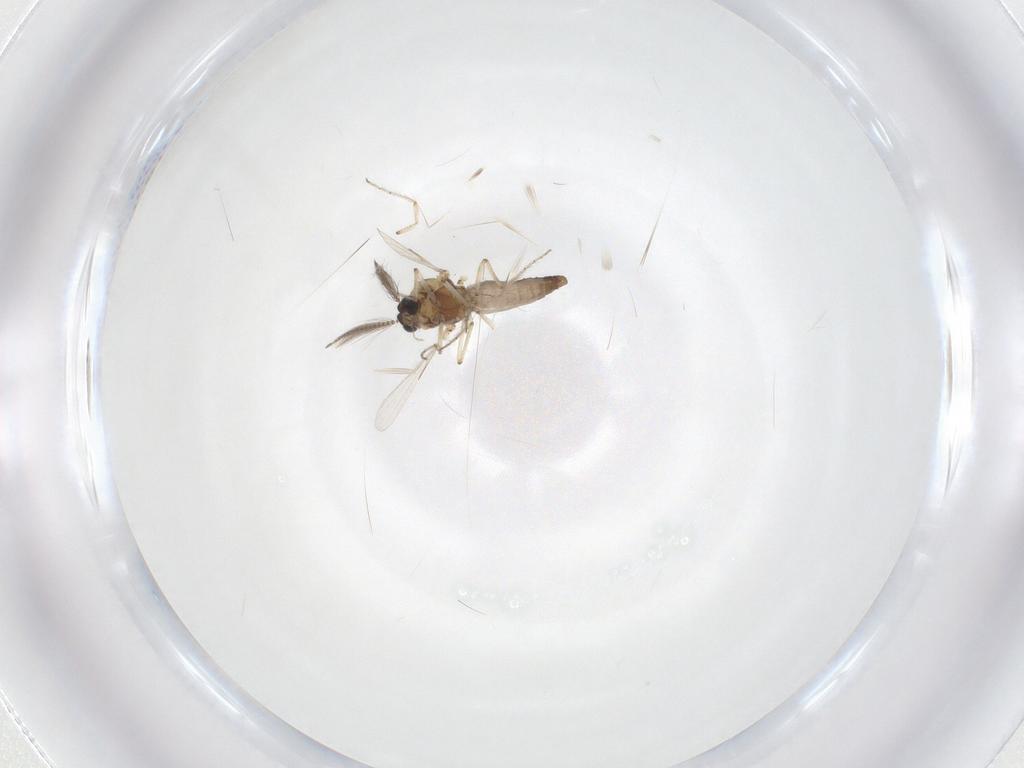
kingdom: Animalia
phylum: Arthropoda
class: Insecta
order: Diptera
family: Ceratopogonidae
